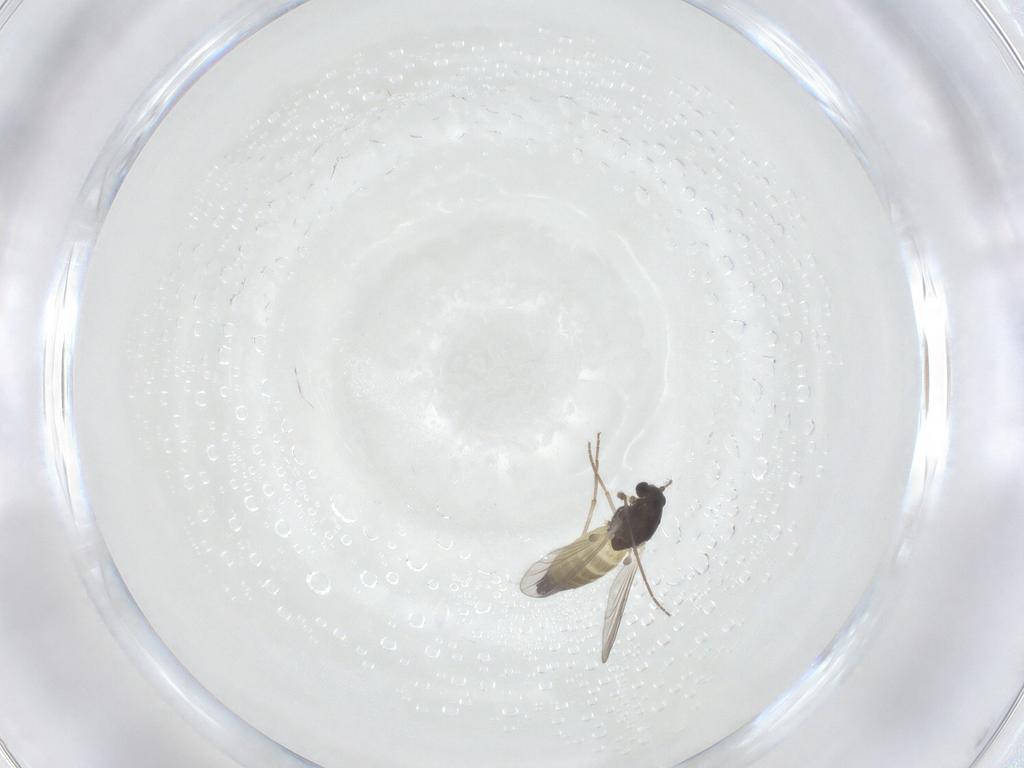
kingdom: Animalia
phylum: Arthropoda
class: Insecta
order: Diptera
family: Chironomidae
